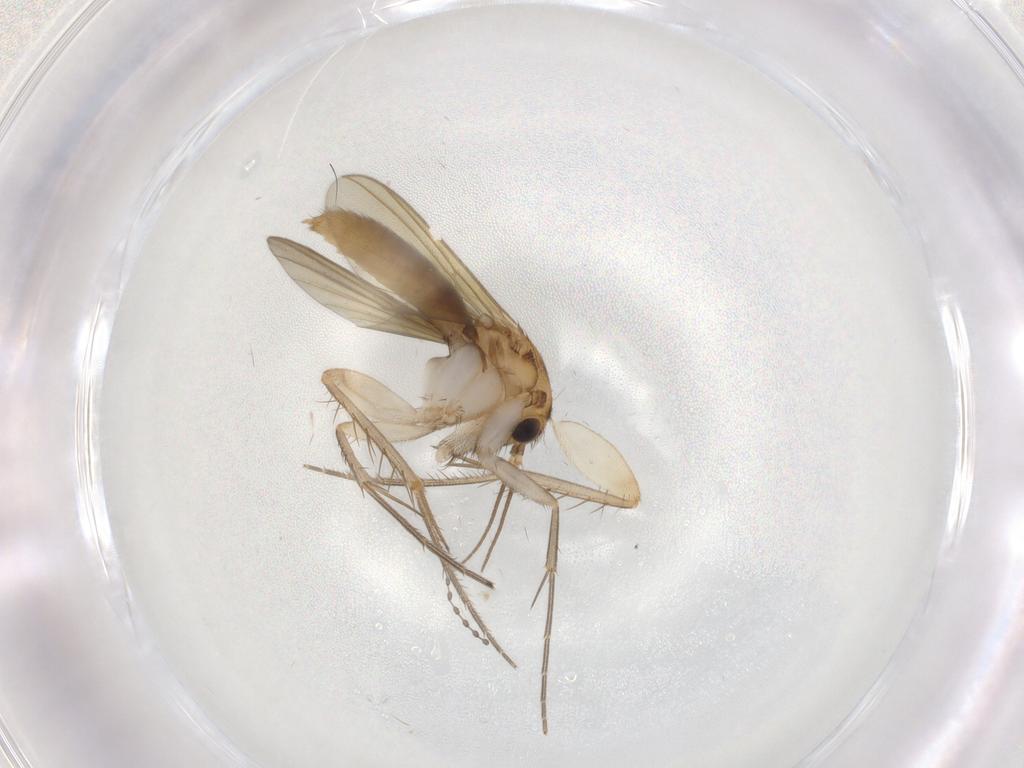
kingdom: Animalia
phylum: Arthropoda
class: Insecta
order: Diptera
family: Mycetophilidae
